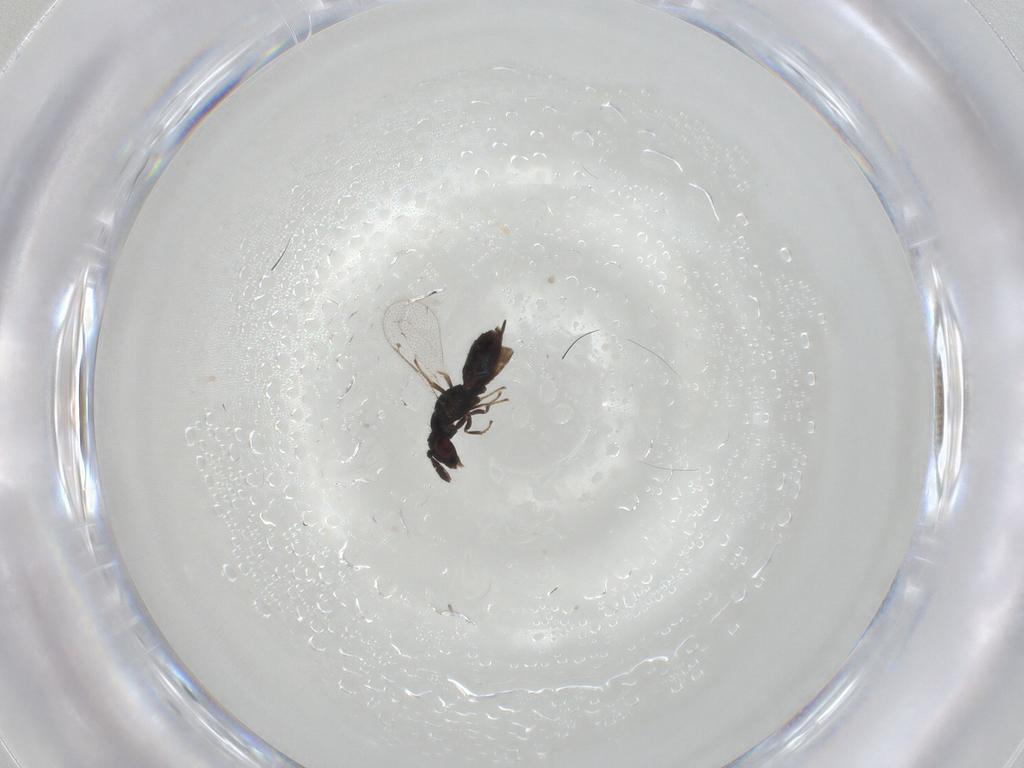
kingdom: Animalia
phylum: Arthropoda
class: Insecta
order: Hymenoptera
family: Pirenidae
